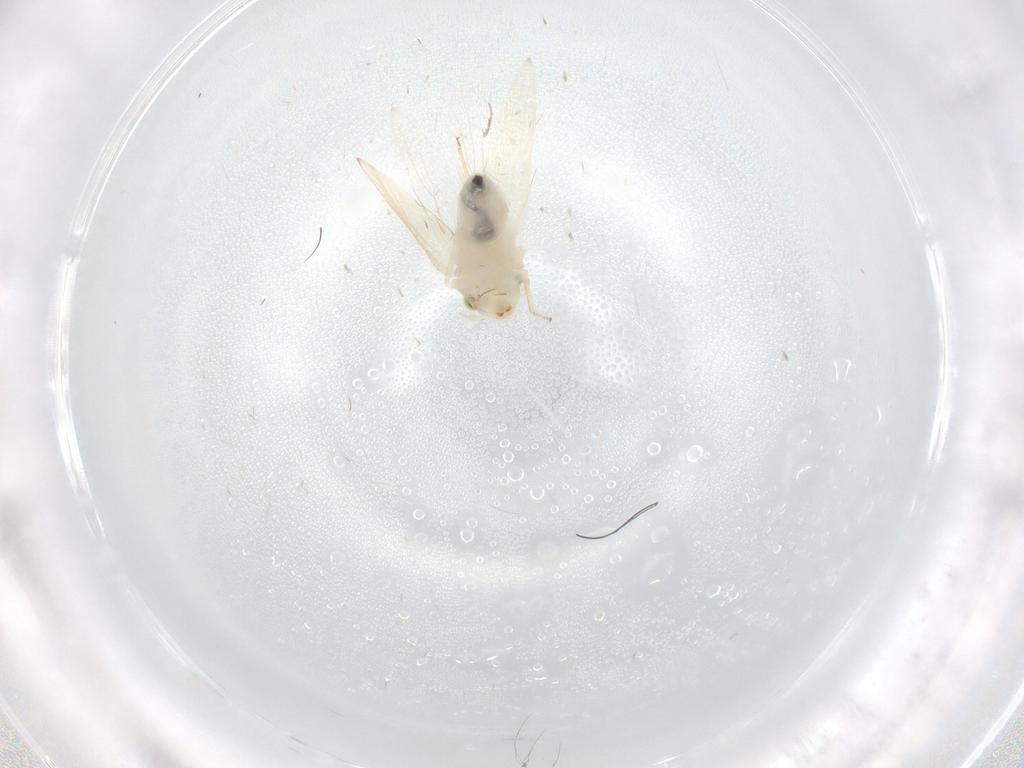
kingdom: Animalia
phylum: Arthropoda
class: Insecta
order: Psocodea
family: Lepidopsocidae
